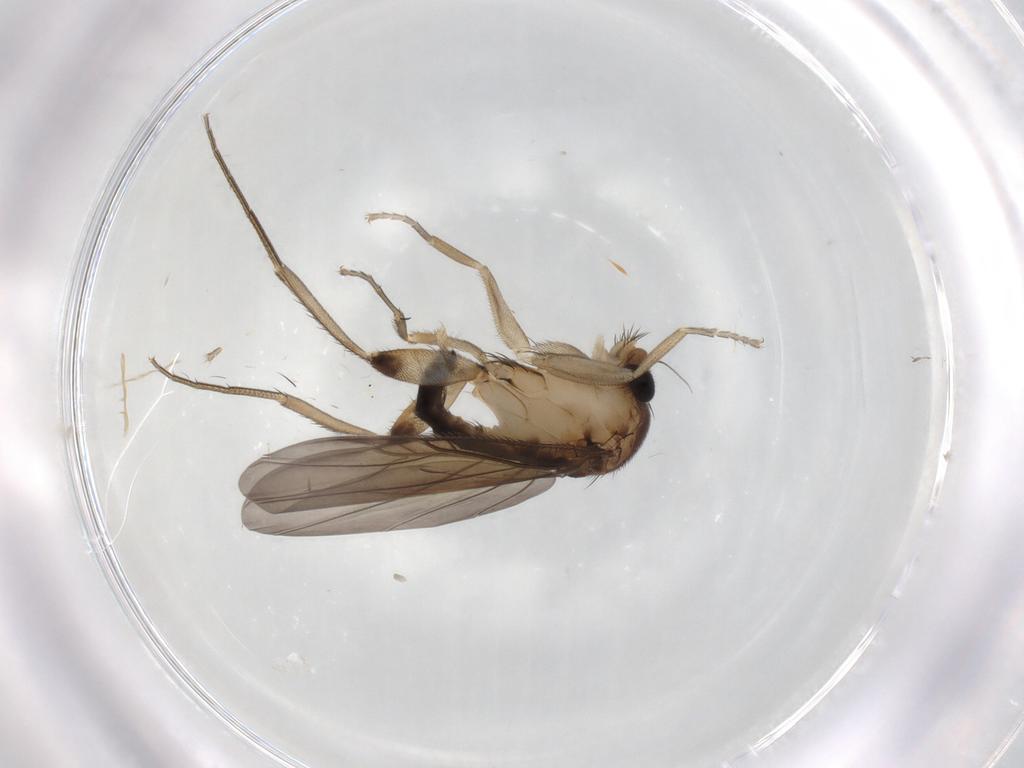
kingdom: Animalia
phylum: Arthropoda
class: Insecta
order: Diptera
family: Phoridae
